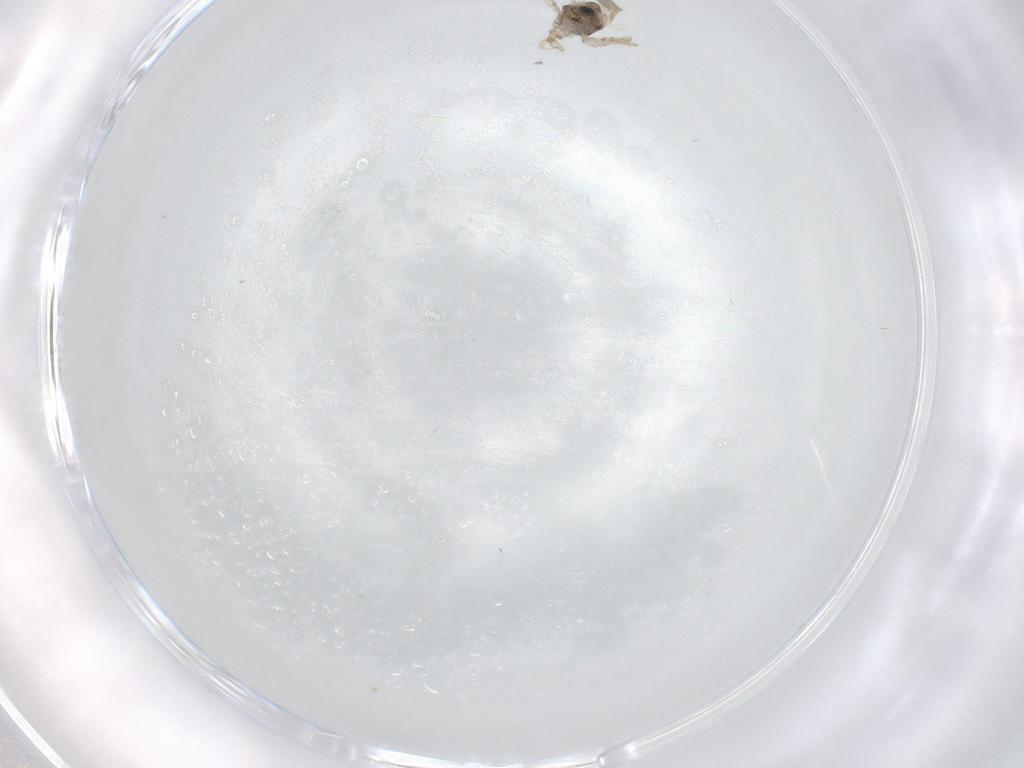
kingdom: Animalia
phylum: Arthropoda
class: Insecta
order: Diptera
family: Cecidomyiidae
